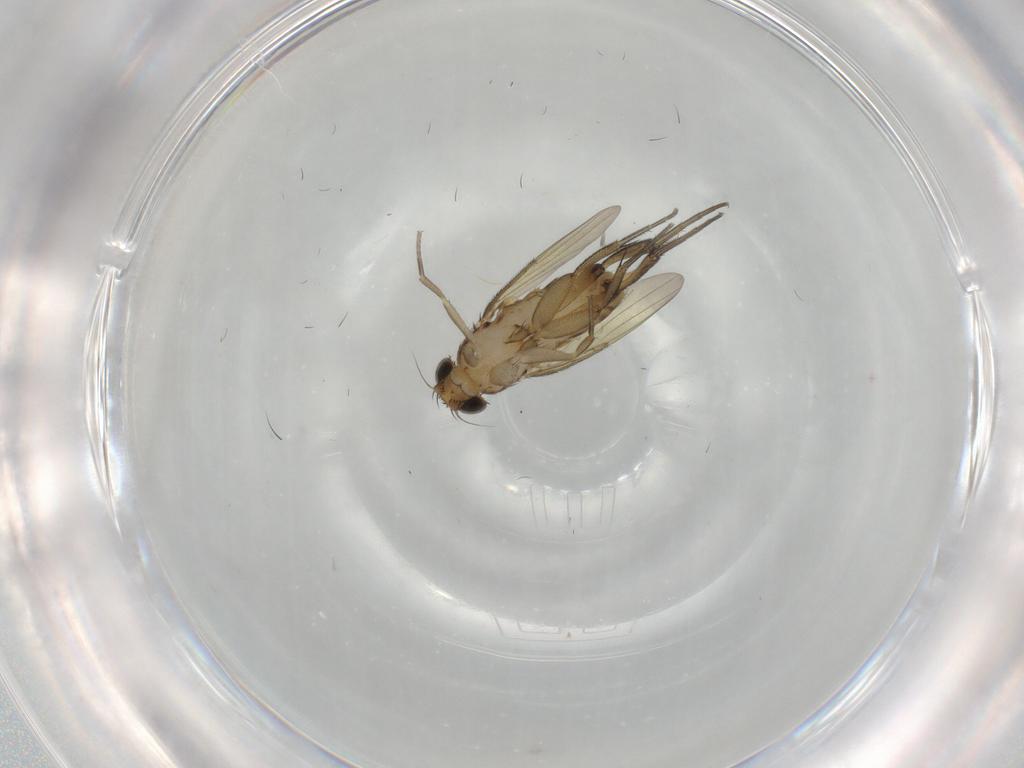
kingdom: Animalia
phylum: Arthropoda
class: Insecta
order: Diptera
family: Phoridae
